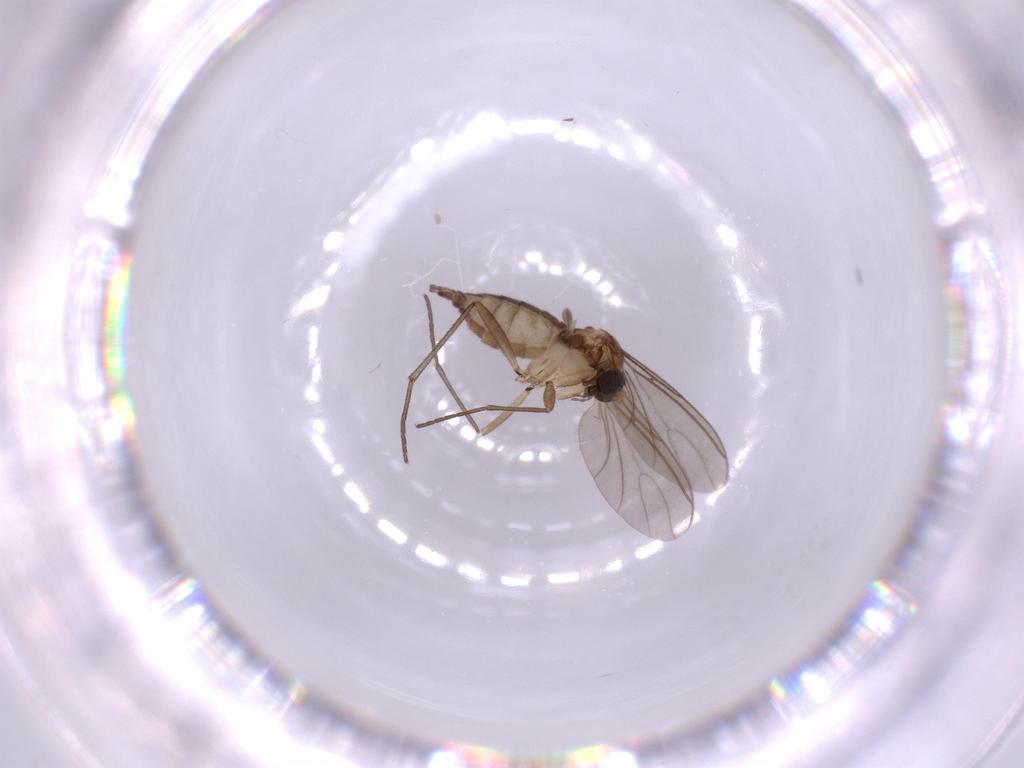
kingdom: Animalia
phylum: Arthropoda
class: Insecta
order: Diptera
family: Sciaridae
